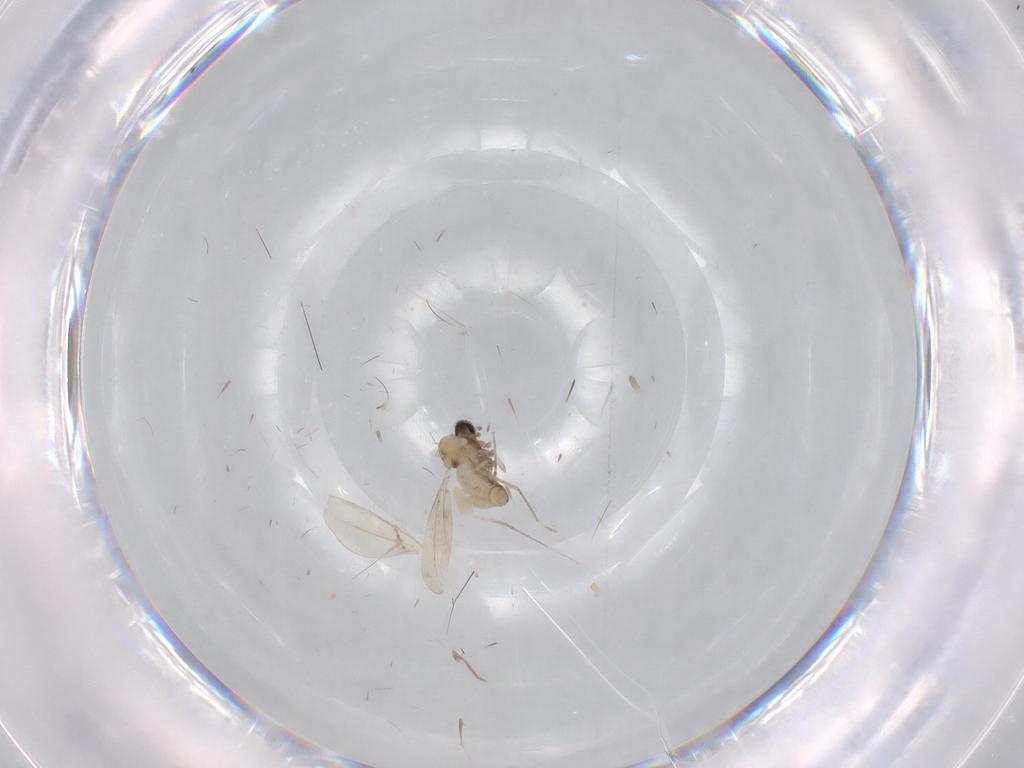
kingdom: Animalia
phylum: Arthropoda
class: Insecta
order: Diptera
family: Cecidomyiidae
